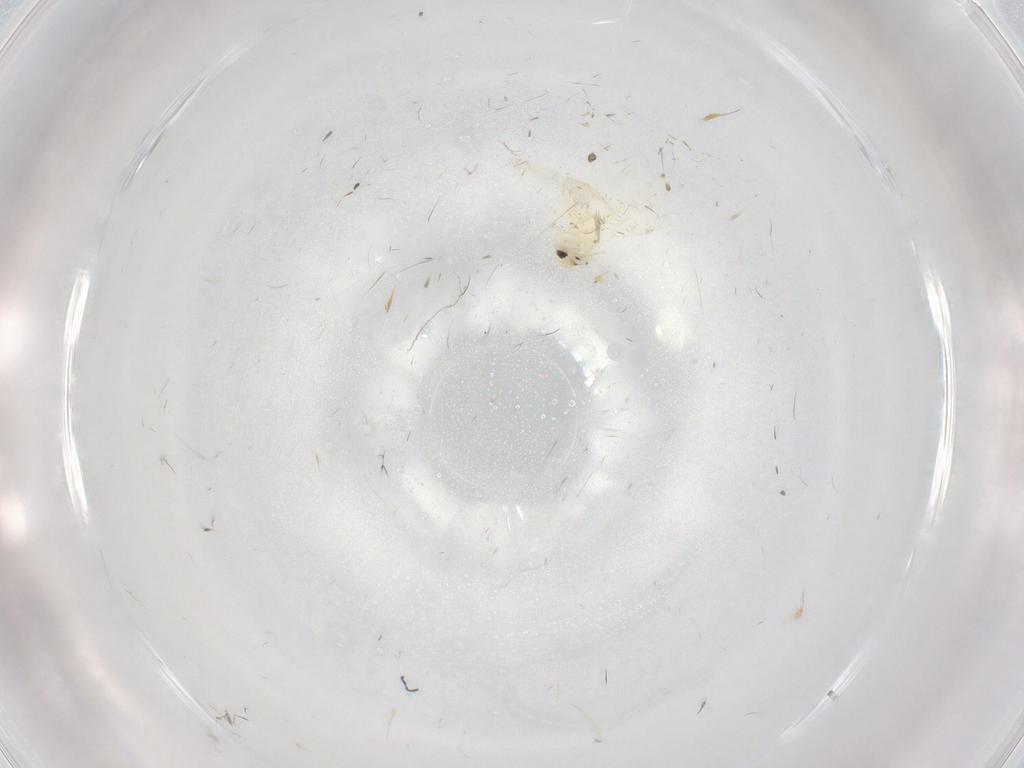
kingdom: Animalia
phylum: Arthropoda
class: Insecta
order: Hemiptera
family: Aleyrodidae
